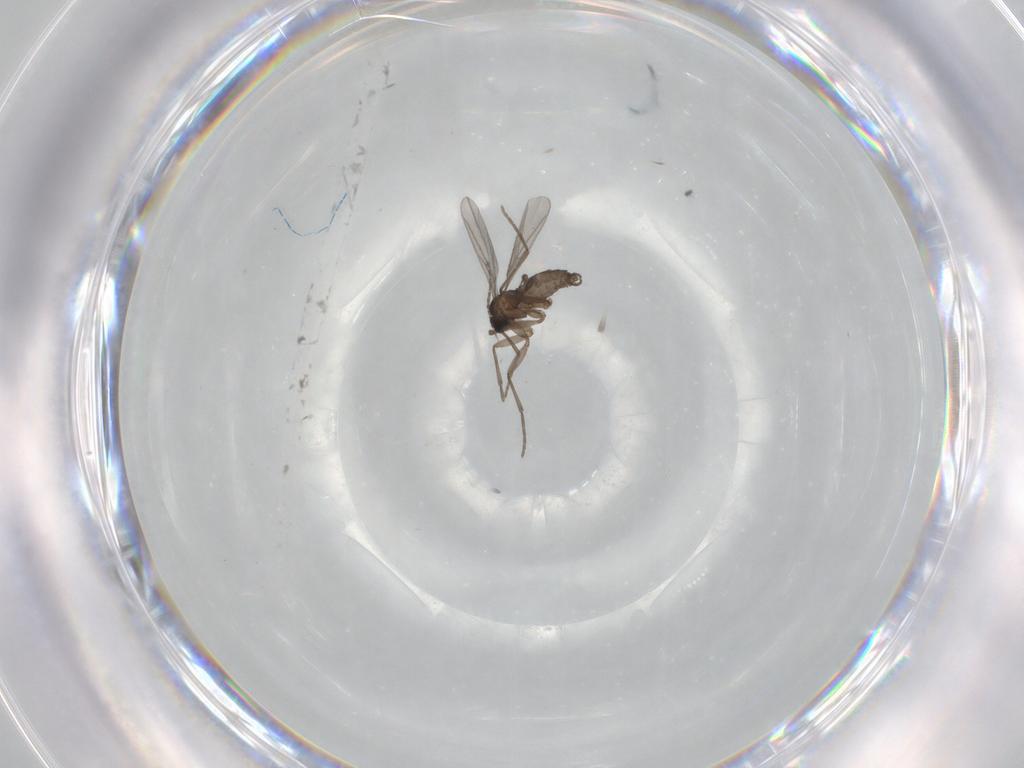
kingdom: Animalia
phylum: Arthropoda
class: Insecta
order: Diptera
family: Sciaridae
